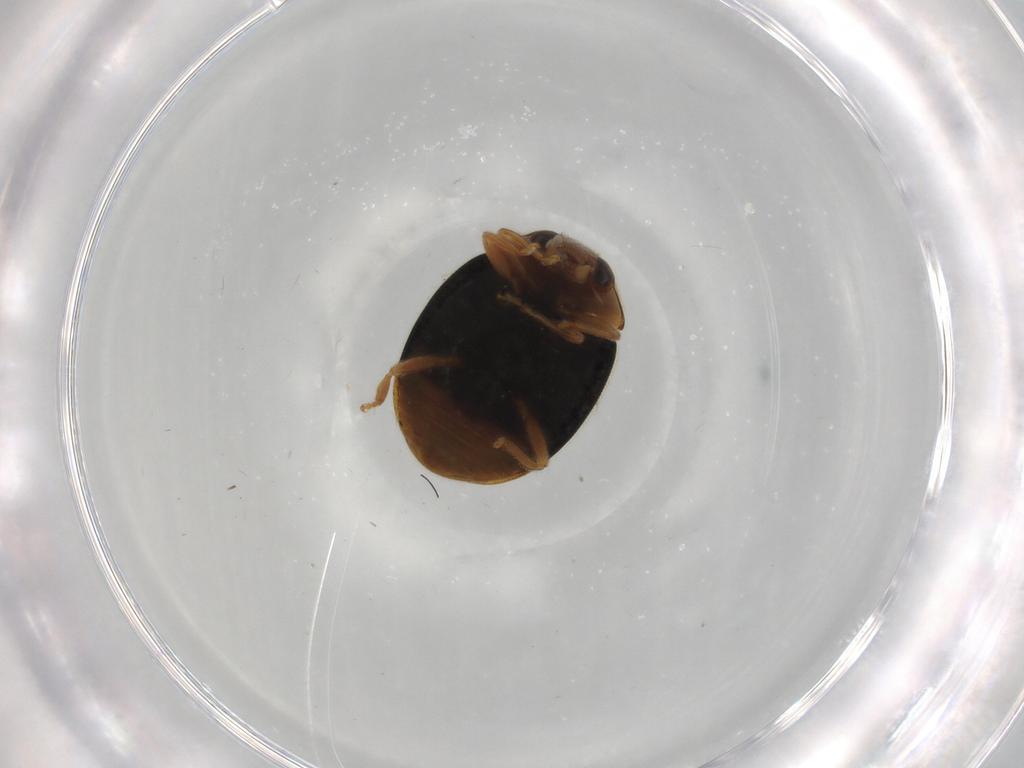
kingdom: Animalia
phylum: Arthropoda
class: Insecta
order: Coleoptera
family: Coccinellidae
